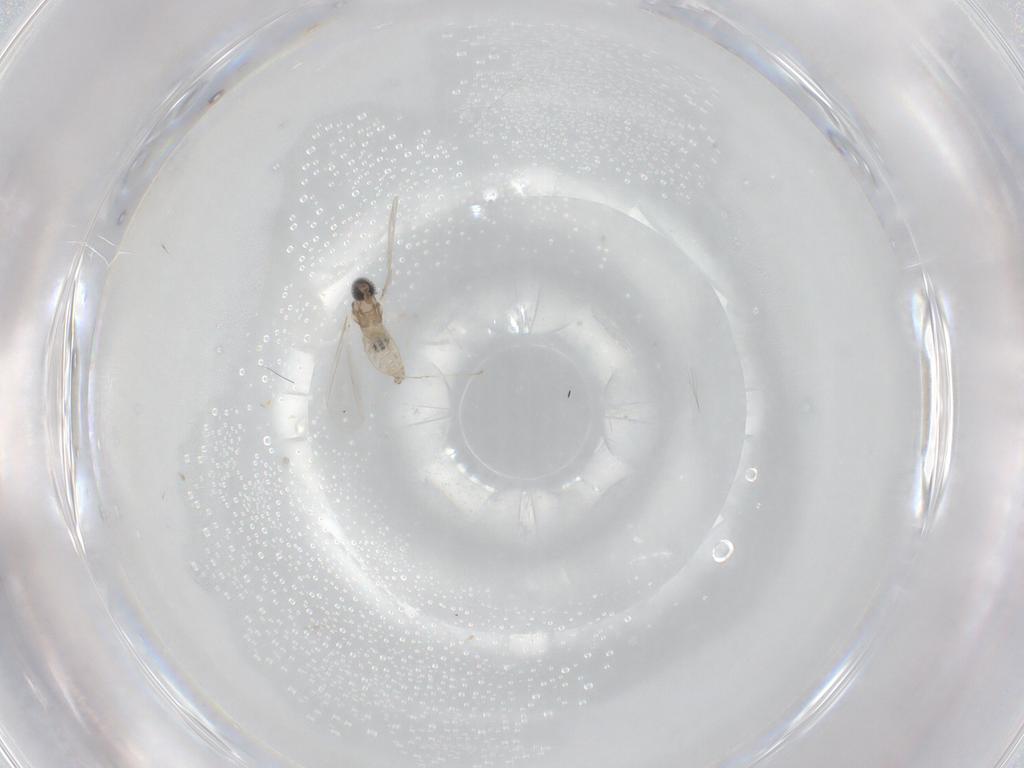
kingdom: Animalia
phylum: Arthropoda
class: Insecta
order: Diptera
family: Cecidomyiidae
